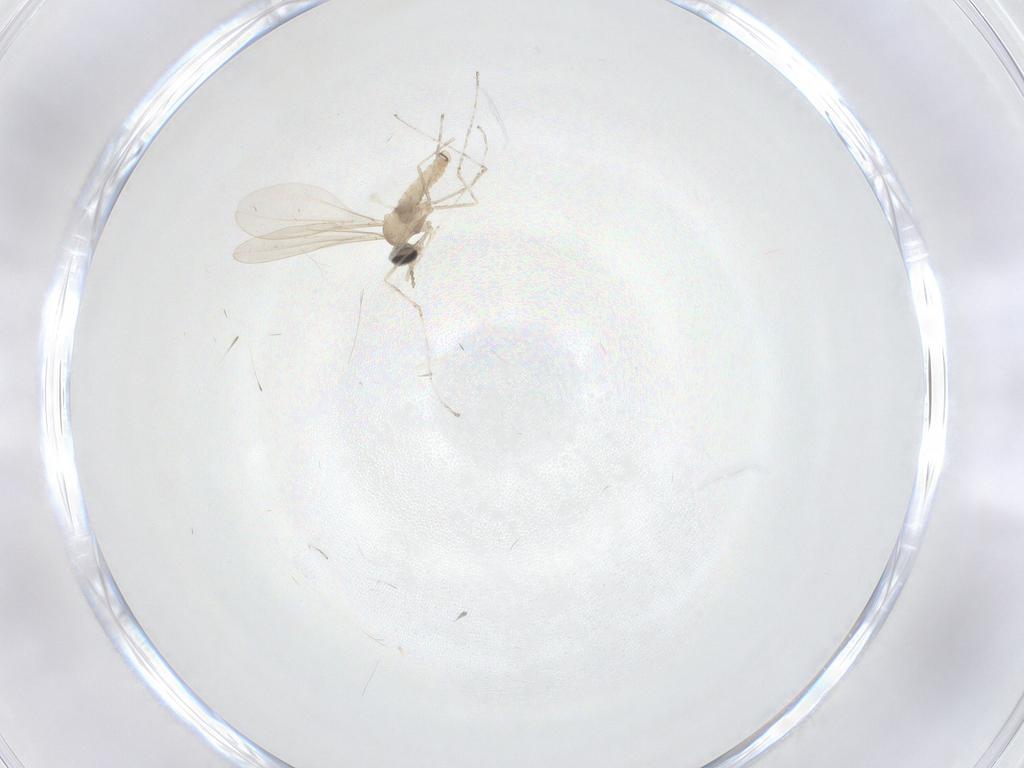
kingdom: Animalia
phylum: Arthropoda
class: Insecta
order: Diptera
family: Cecidomyiidae
